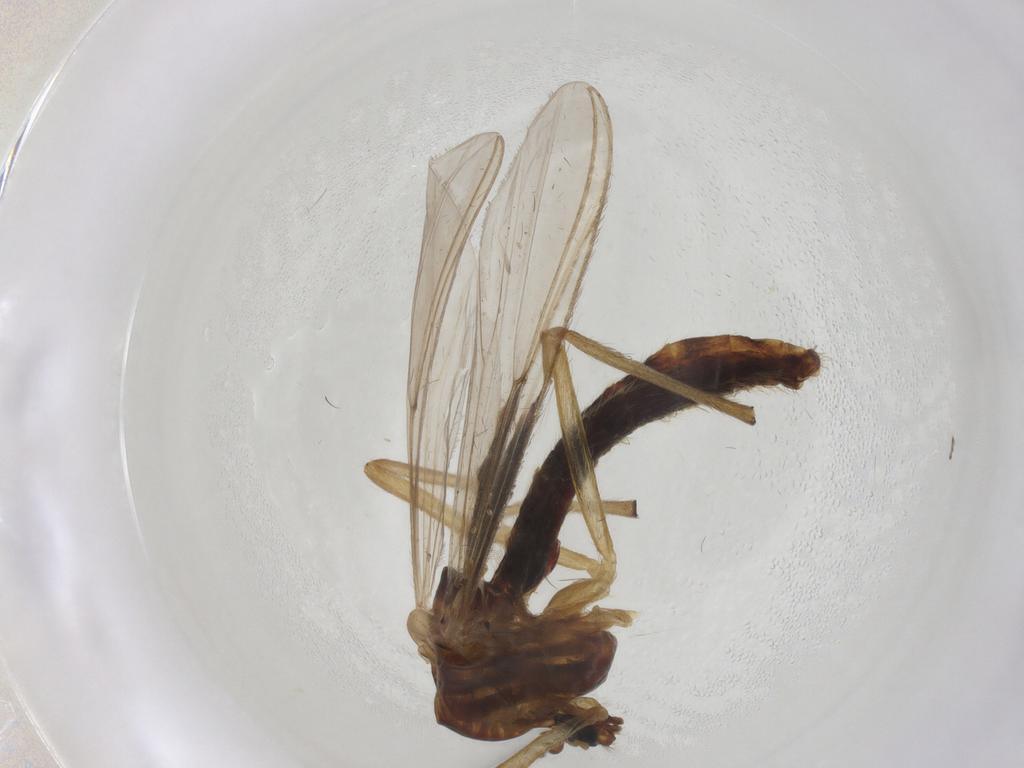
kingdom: Animalia
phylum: Arthropoda
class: Insecta
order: Diptera
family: Chironomidae
